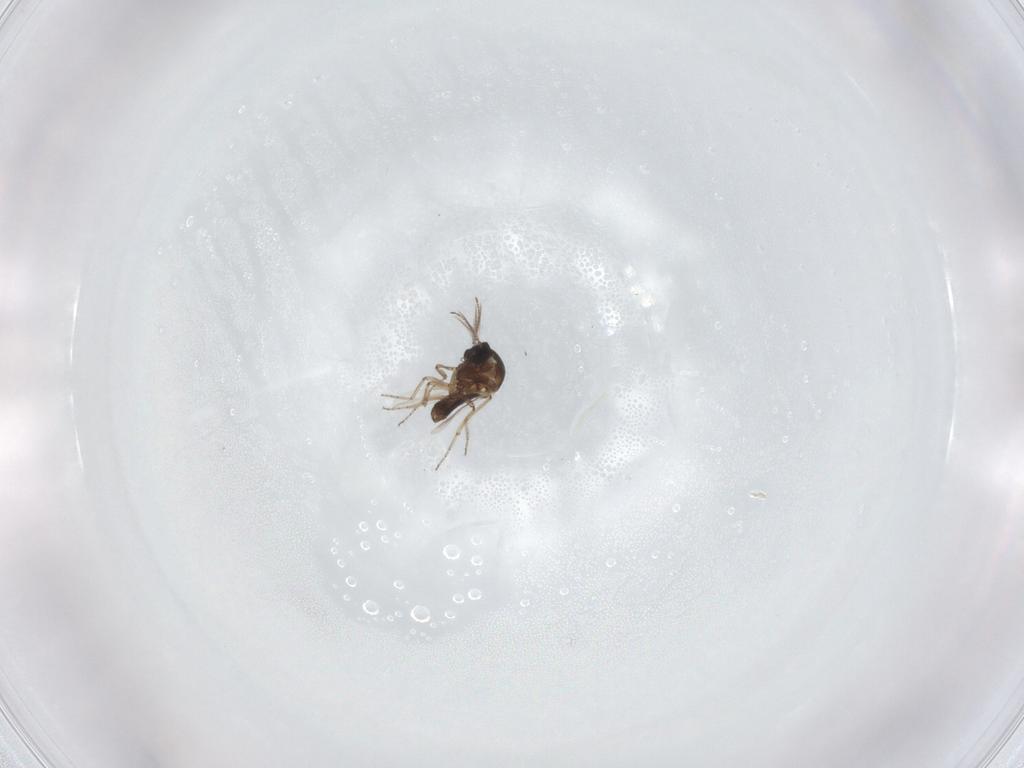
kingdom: Animalia
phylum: Arthropoda
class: Insecta
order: Diptera
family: Ceratopogonidae
